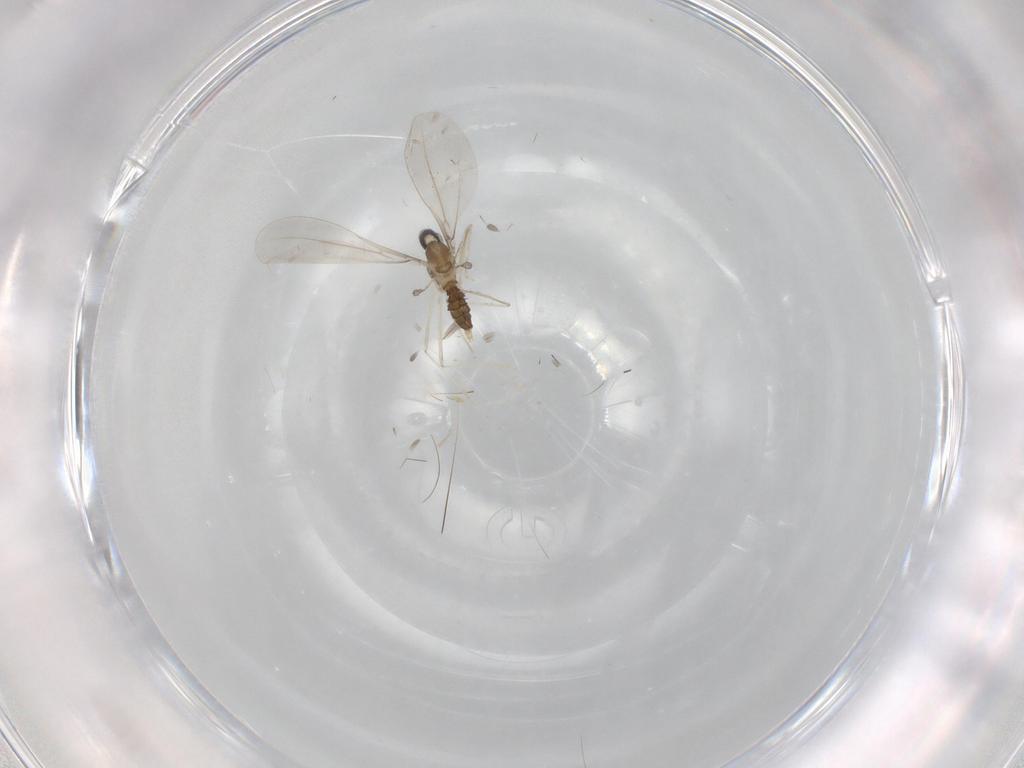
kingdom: Animalia
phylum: Arthropoda
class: Insecta
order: Diptera
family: Cecidomyiidae
